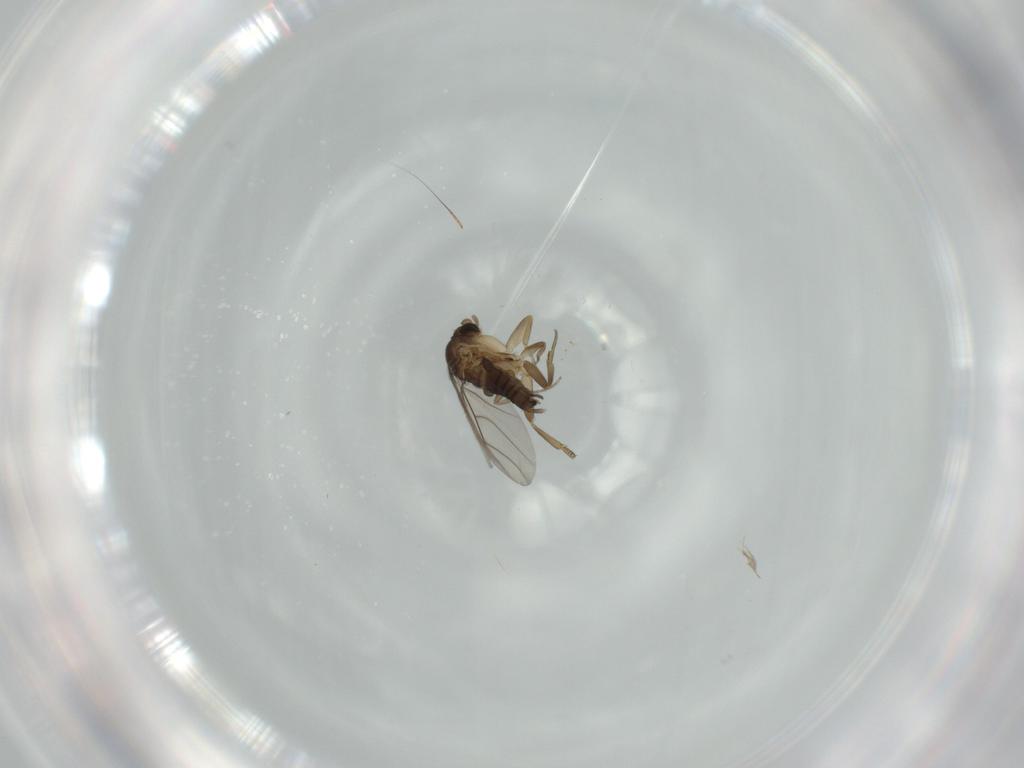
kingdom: Animalia
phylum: Arthropoda
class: Insecta
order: Diptera
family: Phoridae
